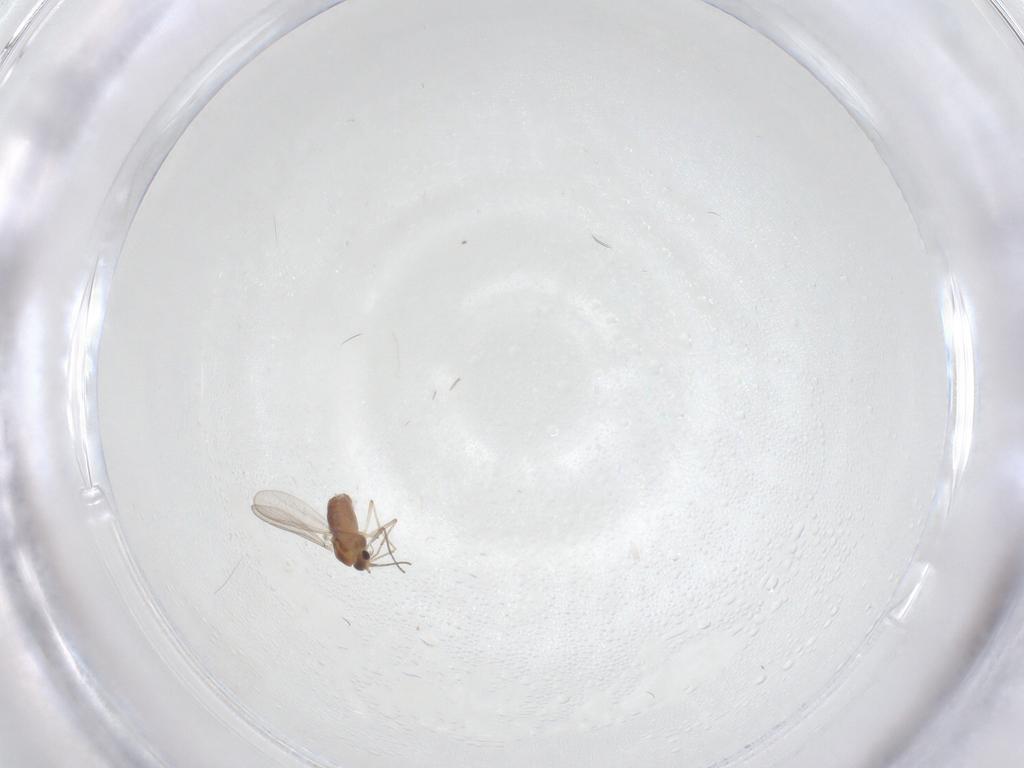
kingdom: Animalia
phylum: Arthropoda
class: Insecta
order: Diptera
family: Chironomidae
